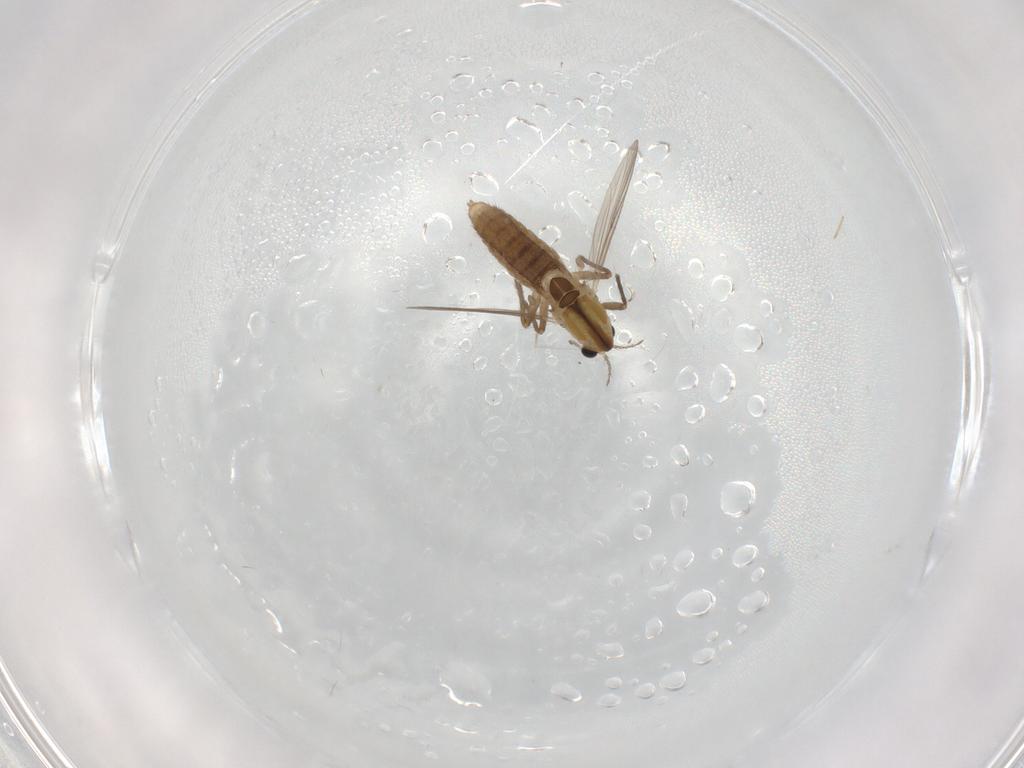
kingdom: Animalia
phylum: Arthropoda
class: Insecta
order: Diptera
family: Chironomidae
